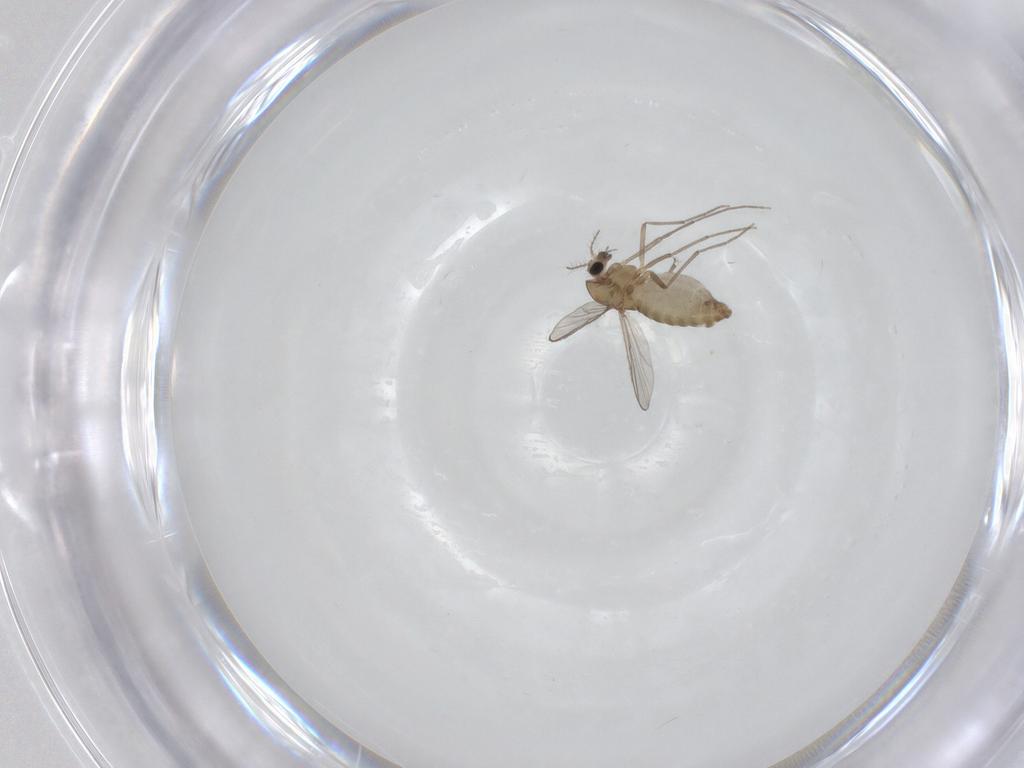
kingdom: Animalia
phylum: Arthropoda
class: Insecta
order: Diptera
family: Chironomidae
